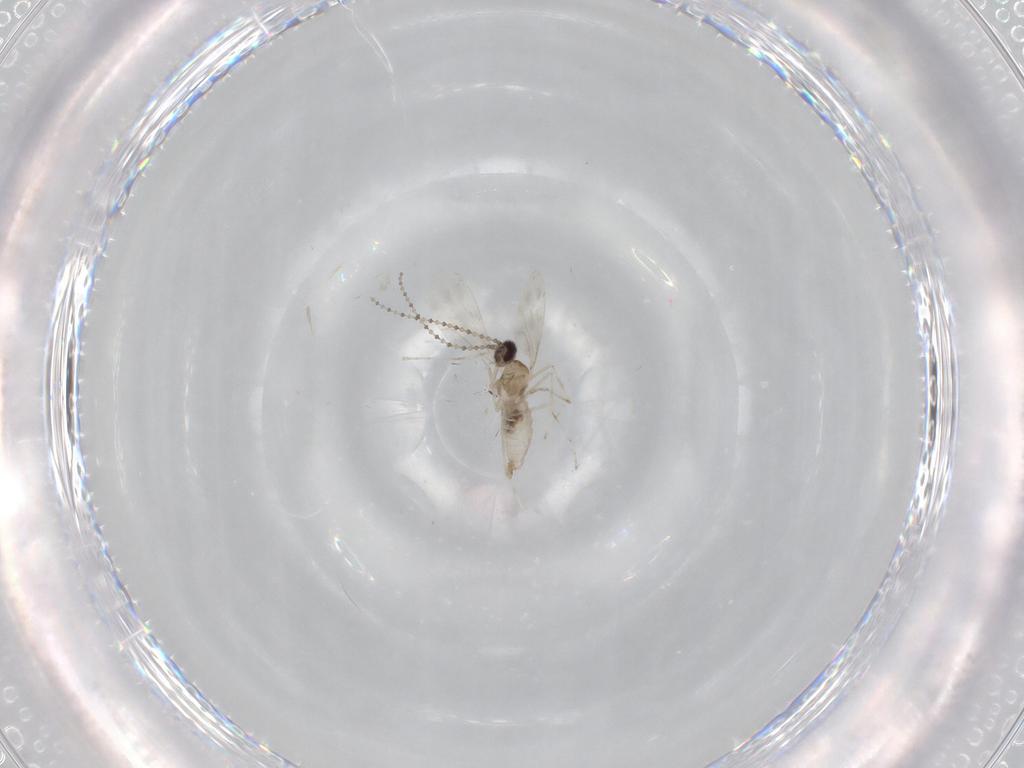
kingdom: Animalia
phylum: Arthropoda
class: Insecta
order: Diptera
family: Cecidomyiidae
